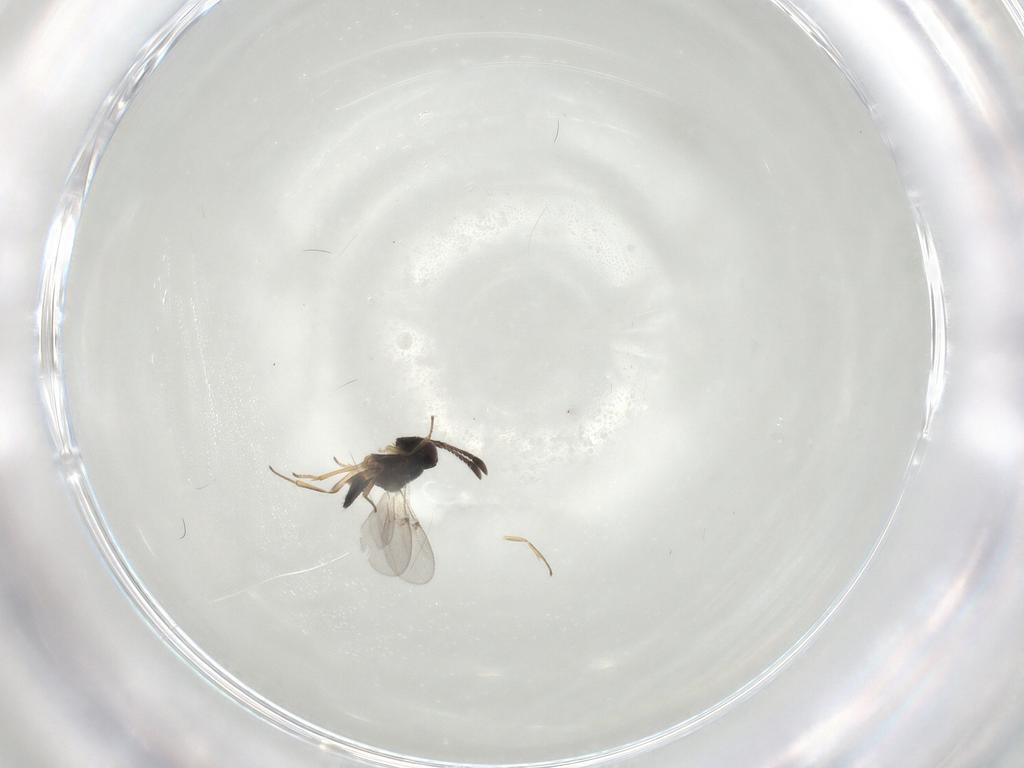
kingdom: Animalia
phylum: Arthropoda
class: Insecta
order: Hymenoptera
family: Encyrtidae
